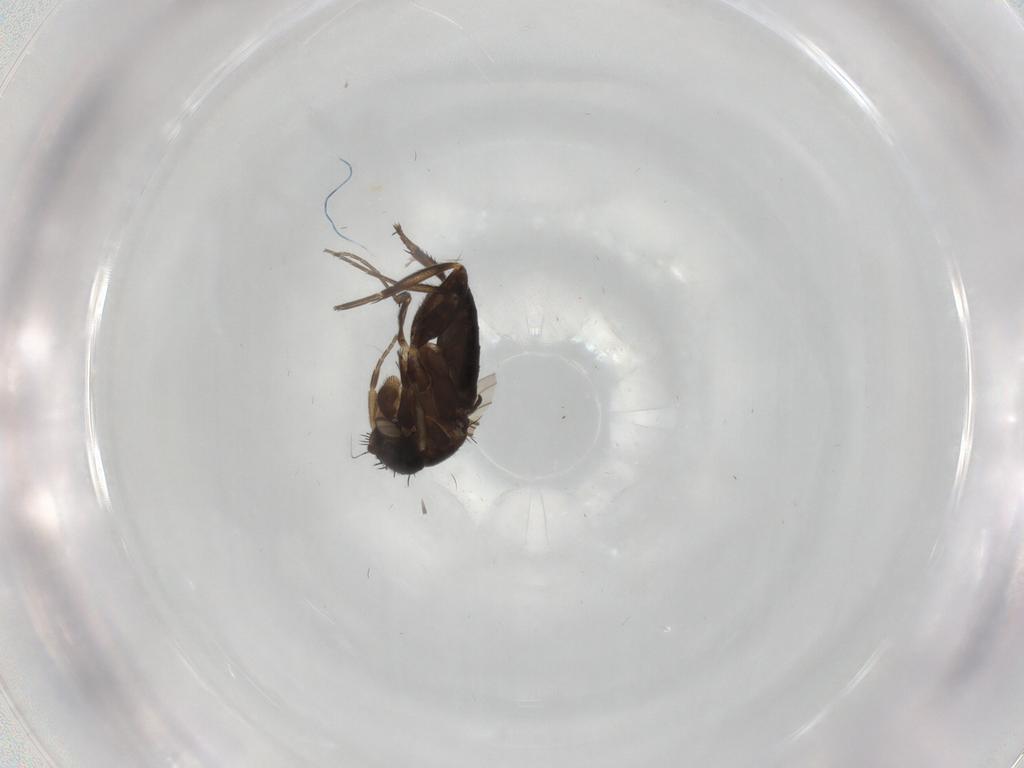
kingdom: Animalia
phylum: Arthropoda
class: Insecta
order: Diptera
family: Phoridae
